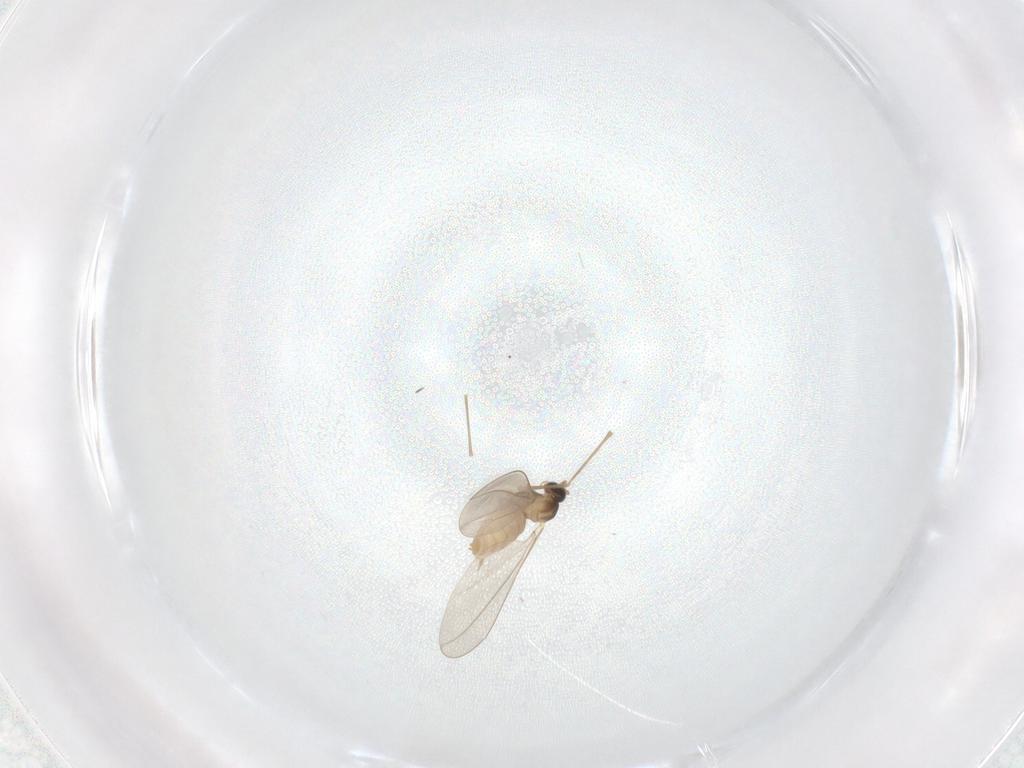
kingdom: Animalia
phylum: Arthropoda
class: Insecta
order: Diptera
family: Cecidomyiidae
